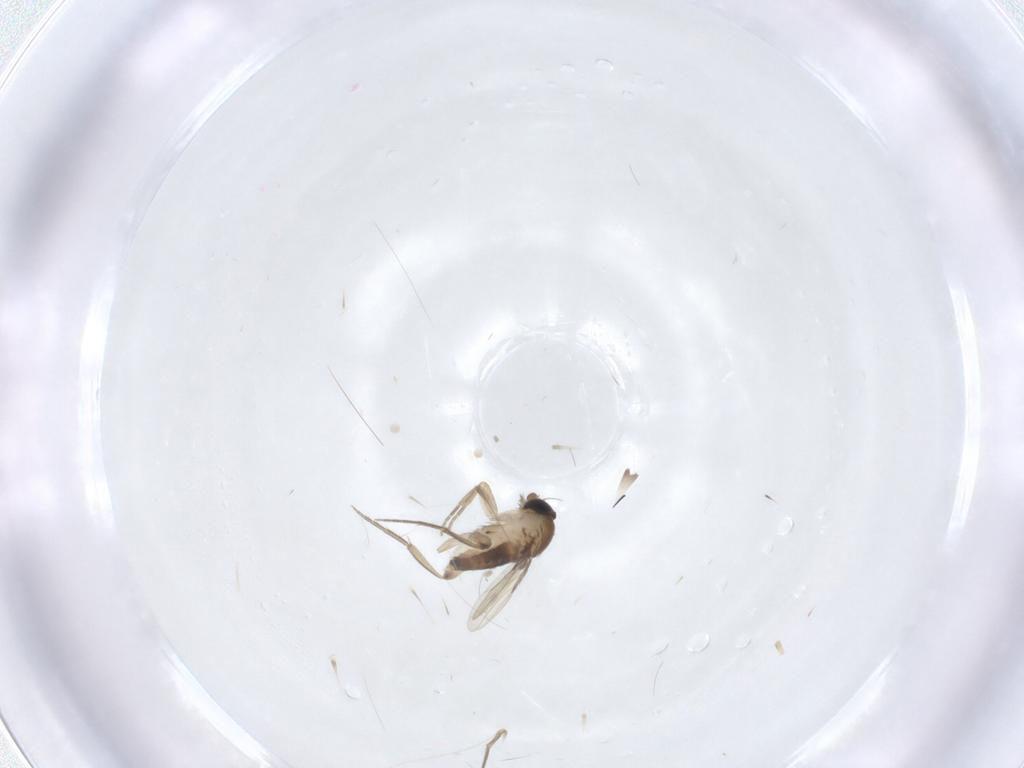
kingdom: Animalia
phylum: Arthropoda
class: Insecta
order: Diptera
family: Phoridae
